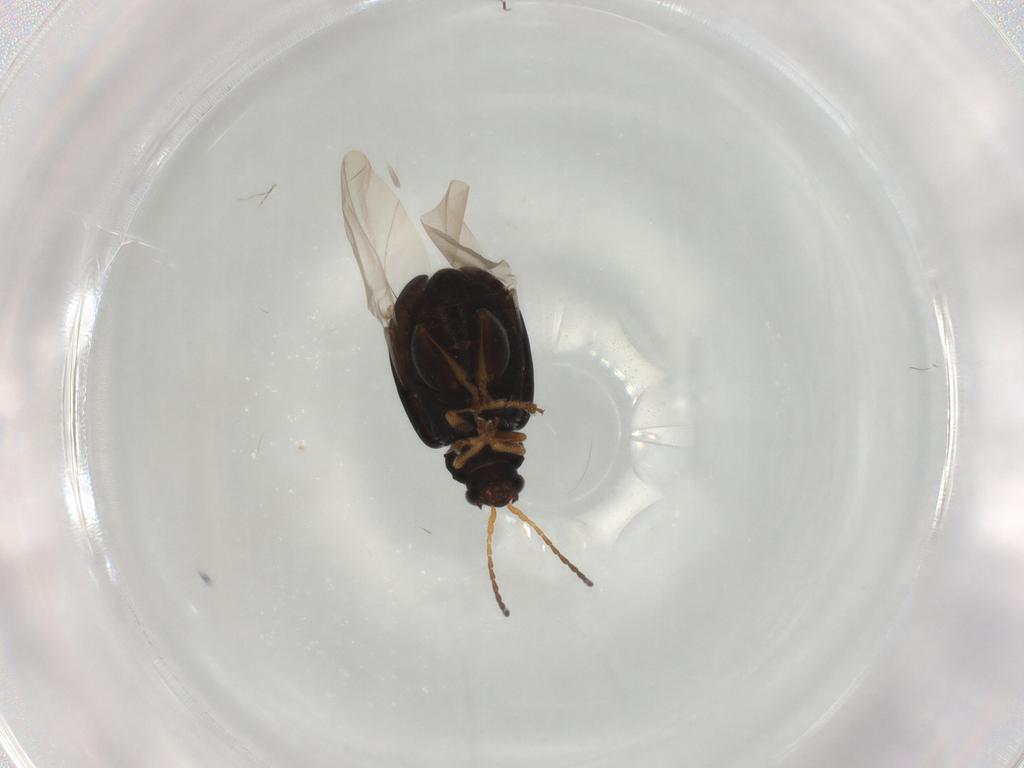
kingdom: Animalia
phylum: Arthropoda
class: Insecta
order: Coleoptera
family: Chrysomelidae
